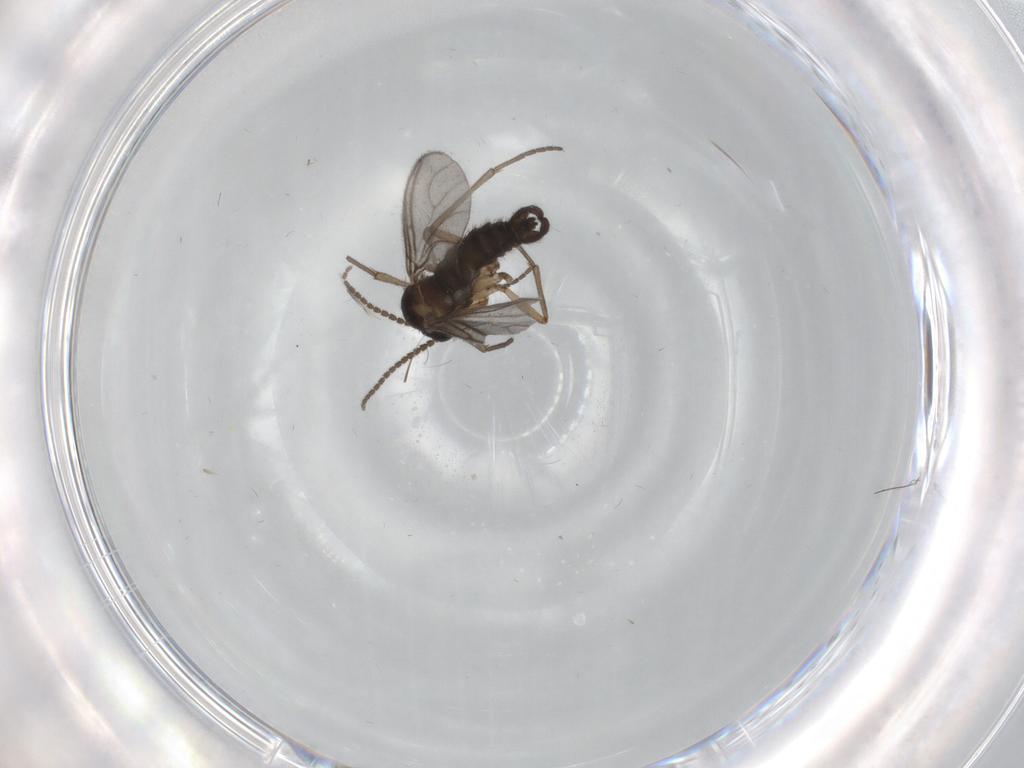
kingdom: Animalia
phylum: Arthropoda
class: Insecta
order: Diptera
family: Sciaridae
